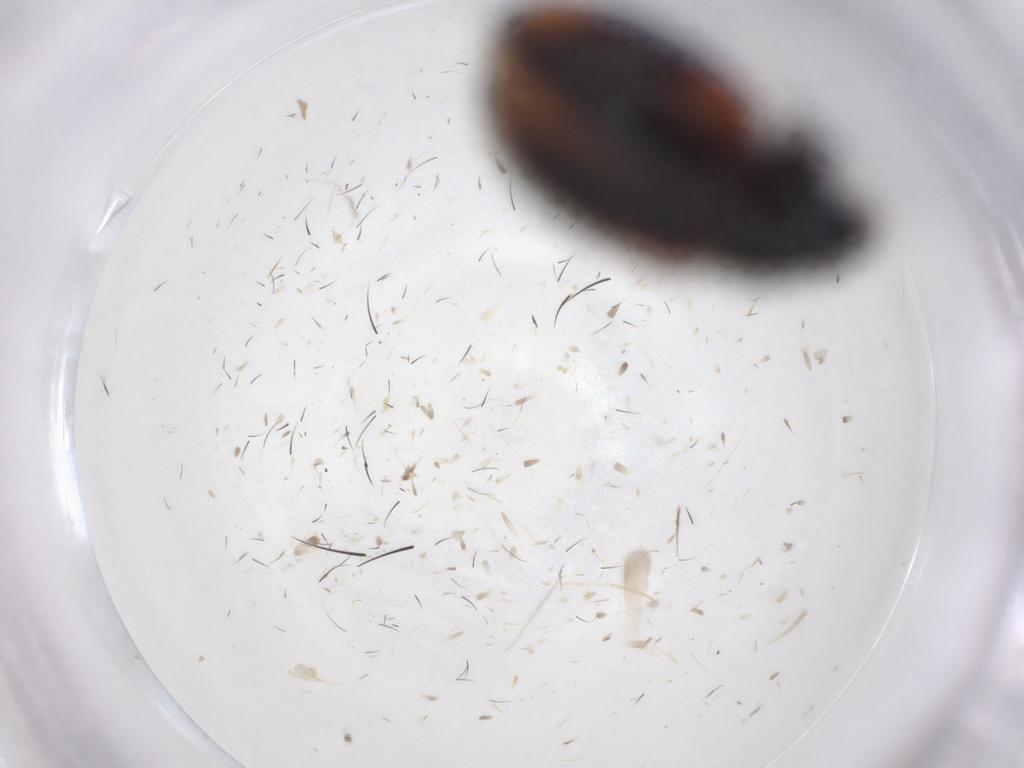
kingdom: Animalia
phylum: Arthropoda
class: Insecta
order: Coleoptera
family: Chrysomelidae
